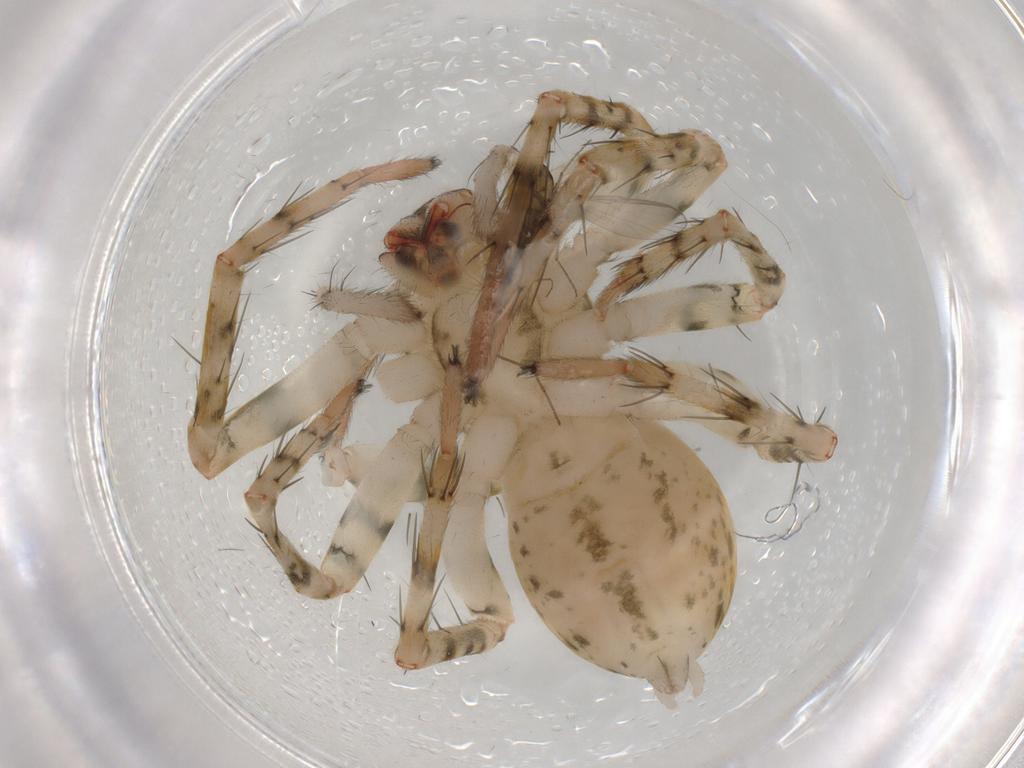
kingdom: Animalia
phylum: Arthropoda
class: Arachnida
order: Araneae
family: Anyphaenidae
